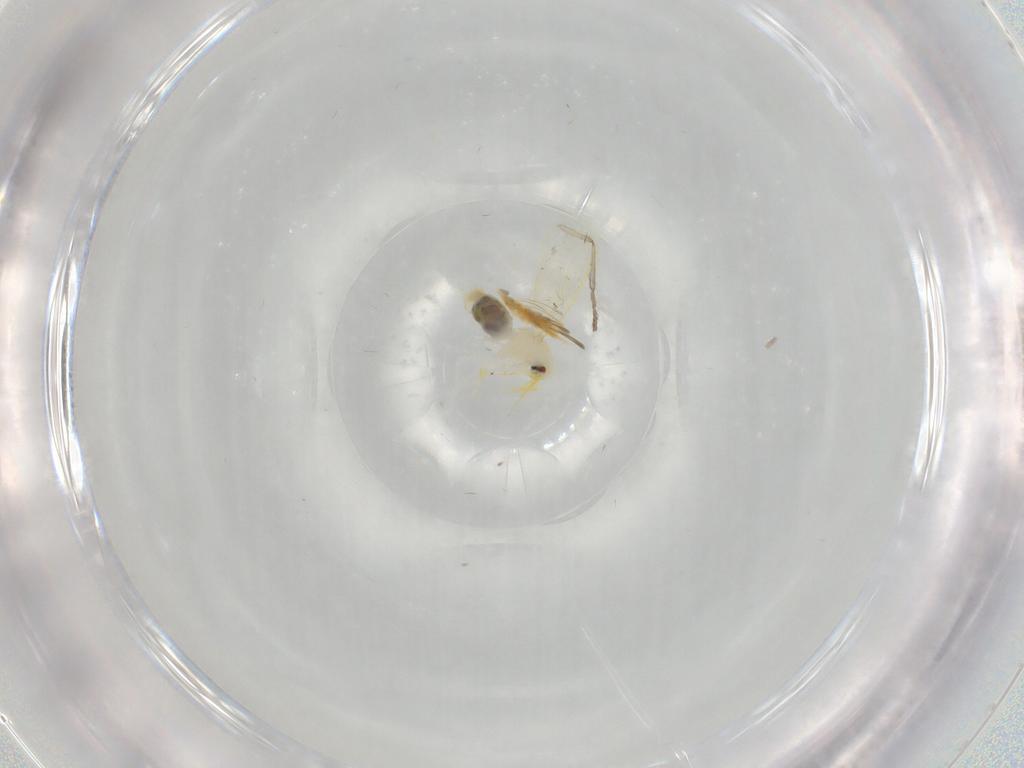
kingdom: Animalia
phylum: Arthropoda
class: Insecta
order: Hemiptera
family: Aleyrodidae
